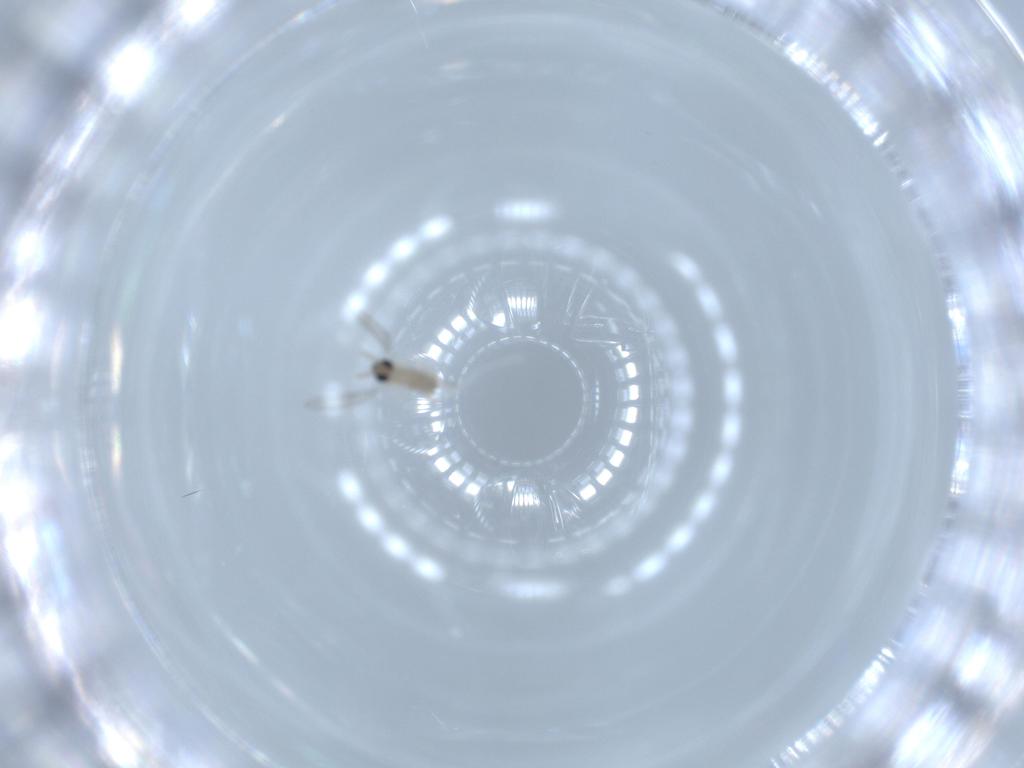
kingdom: Animalia
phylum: Arthropoda
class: Insecta
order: Diptera
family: Cecidomyiidae
